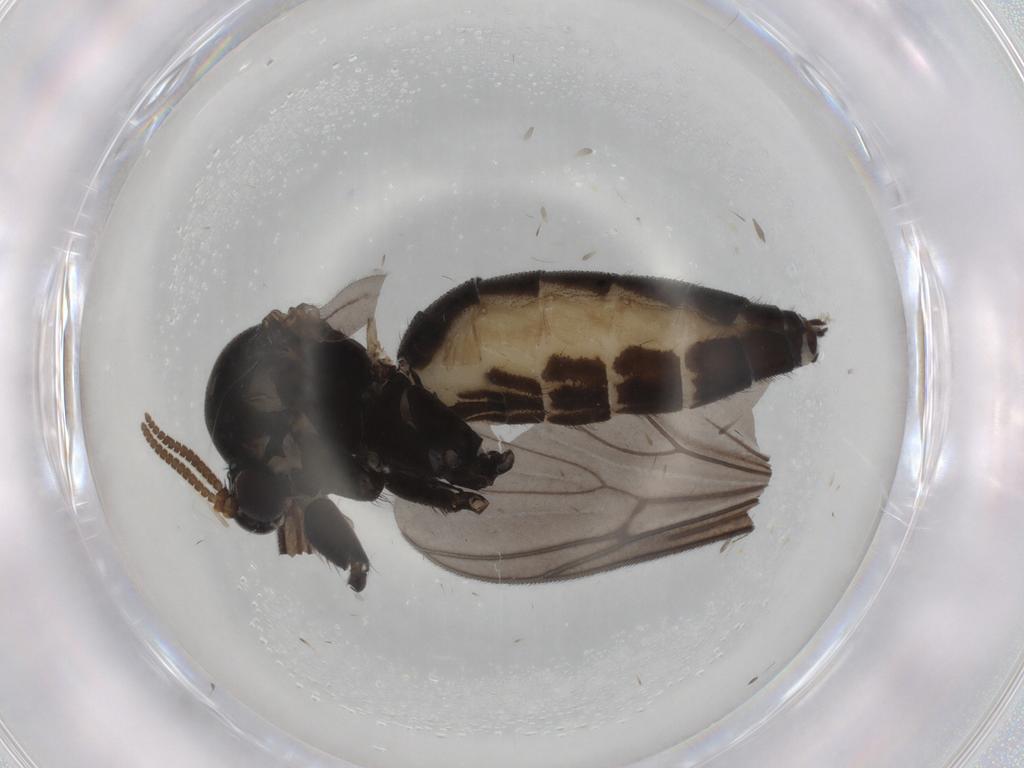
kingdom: Animalia
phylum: Arthropoda
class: Insecta
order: Diptera
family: Mycetophilidae
